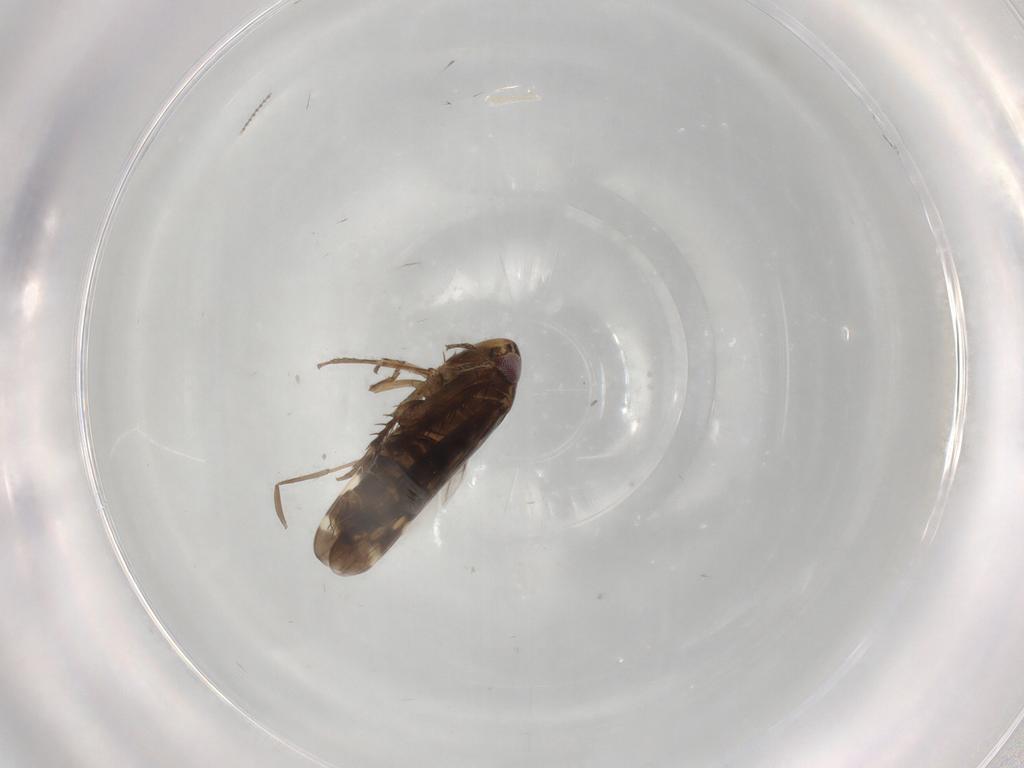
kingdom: Animalia
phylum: Arthropoda
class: Insecta
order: Hemiptera
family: Cicadellidae
